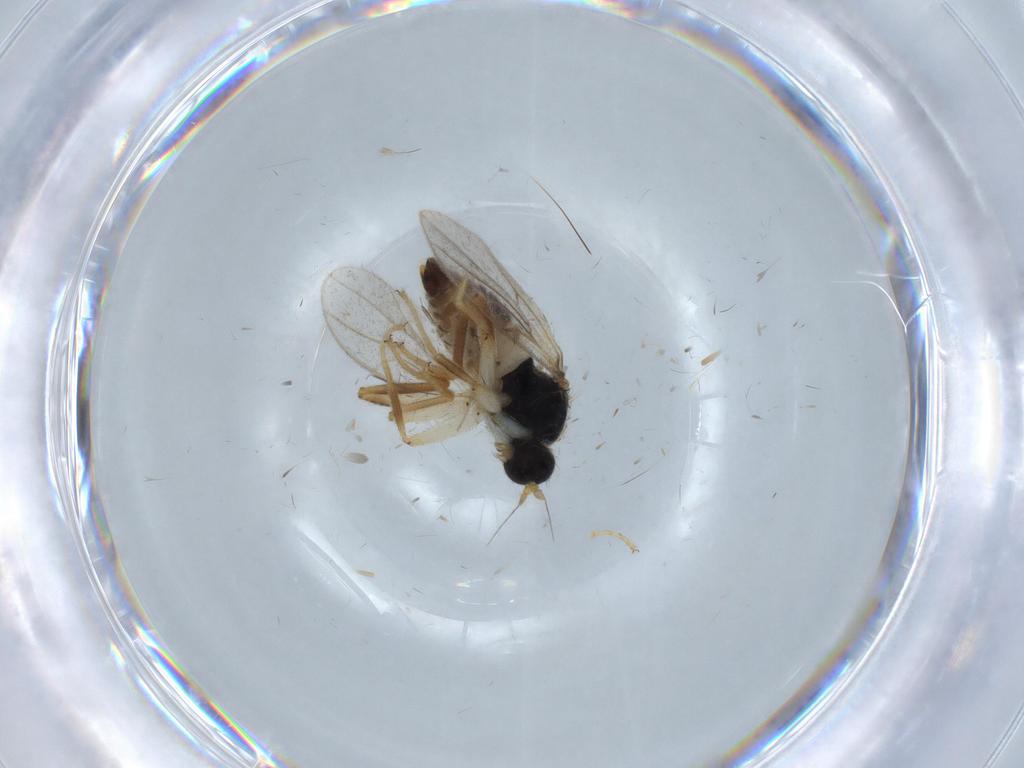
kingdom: Animalia
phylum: Arthropoda
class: Insecta
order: Diptera
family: Hybotidae
